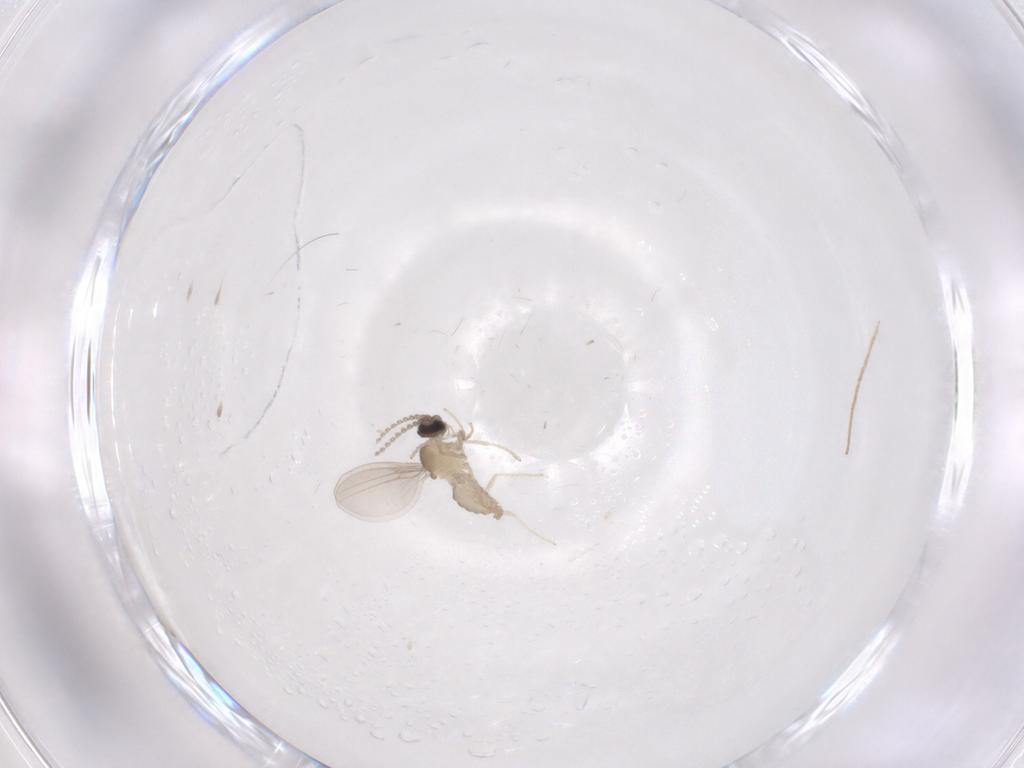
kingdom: Animalia
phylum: Arthropoda
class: Insecta
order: Diptera
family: Cecidomyiidae
